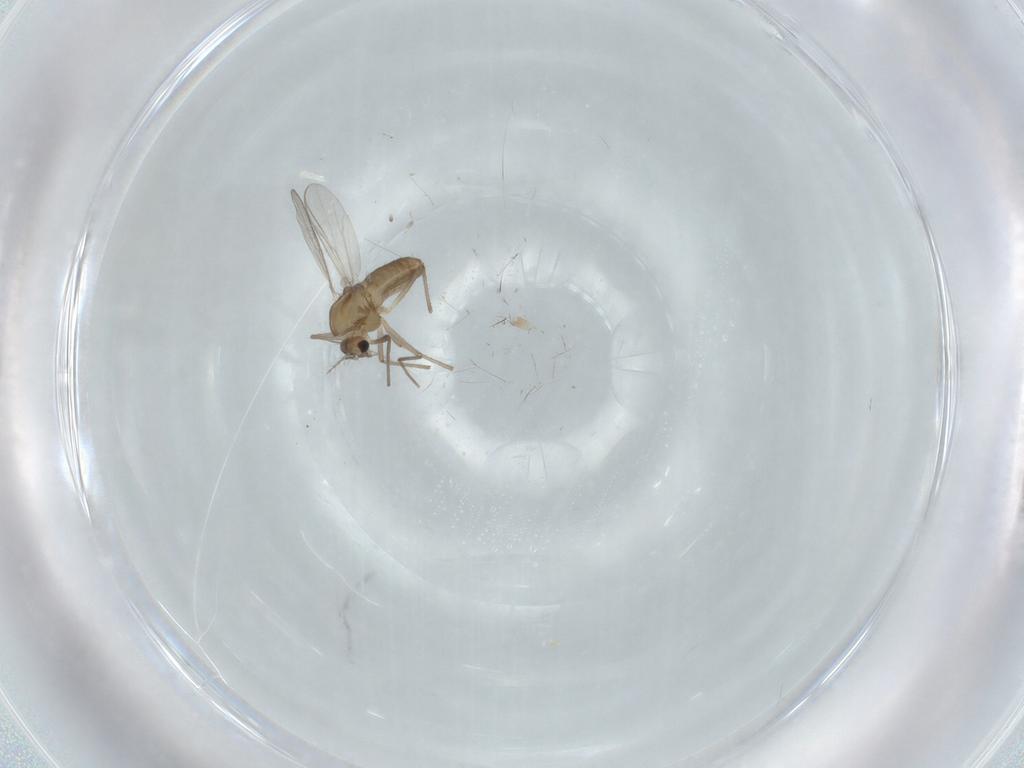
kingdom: Animalia
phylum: Arthropoda
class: Insecta
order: Diptera
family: Chironomidae
